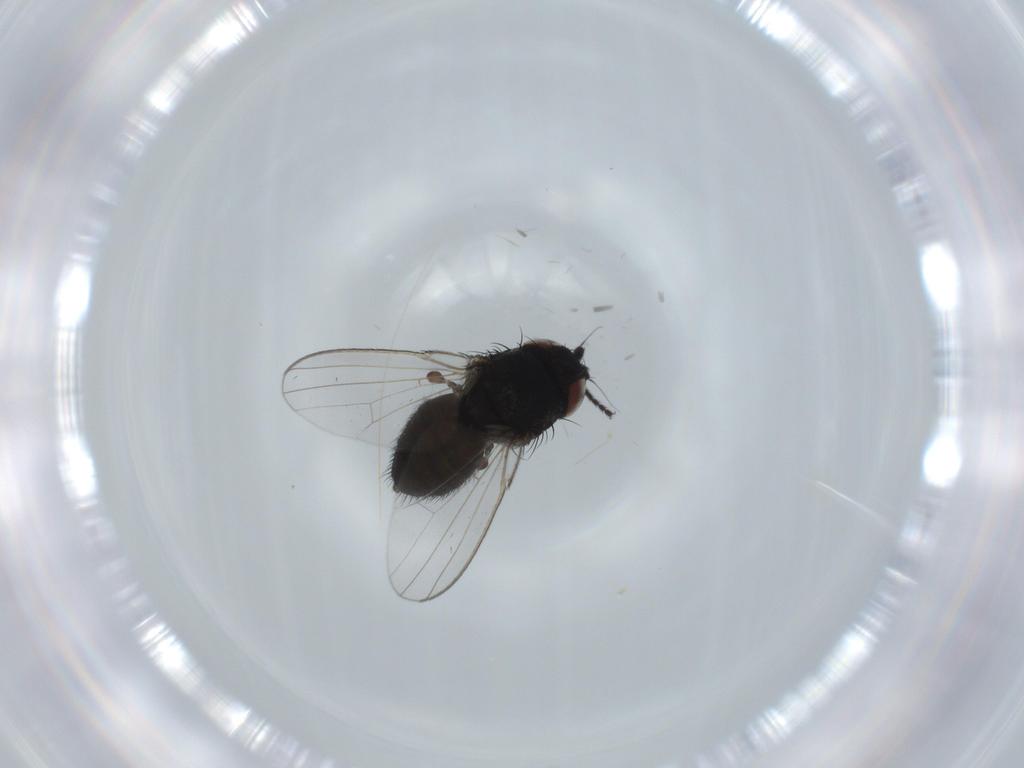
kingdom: Animalia
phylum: Arthropoda
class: Insecta
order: Diptera
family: Milichiidae
